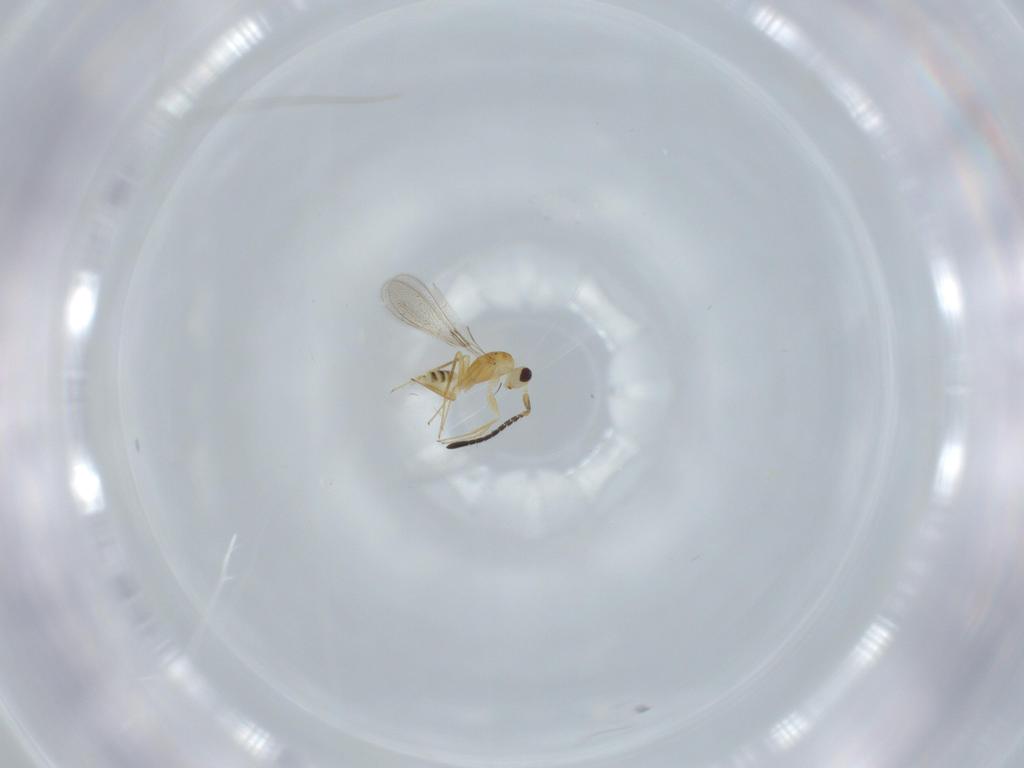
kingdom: Animalia
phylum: Arthropoda
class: Insecta
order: Hymenoptera
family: Mymaridae
